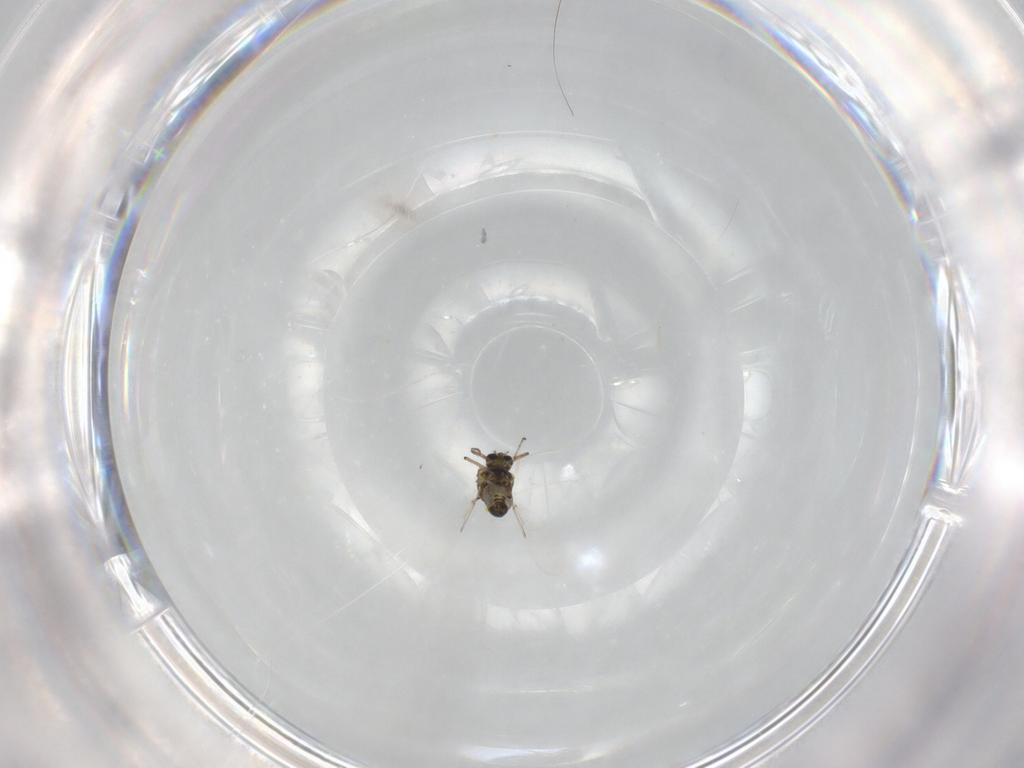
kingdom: Animalia
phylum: Arthropoda
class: Insecta
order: Diptera
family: Ceratopogonidae
